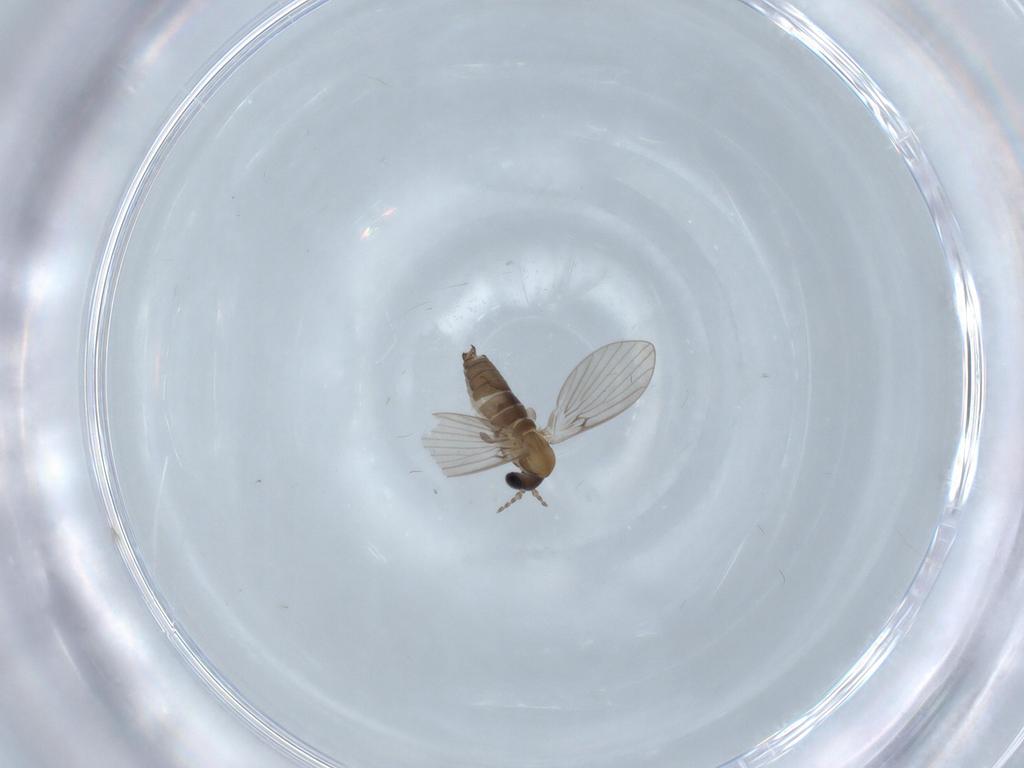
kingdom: Animalia
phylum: Arthropoda
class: Insecta
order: Diptera
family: Psychodidae
